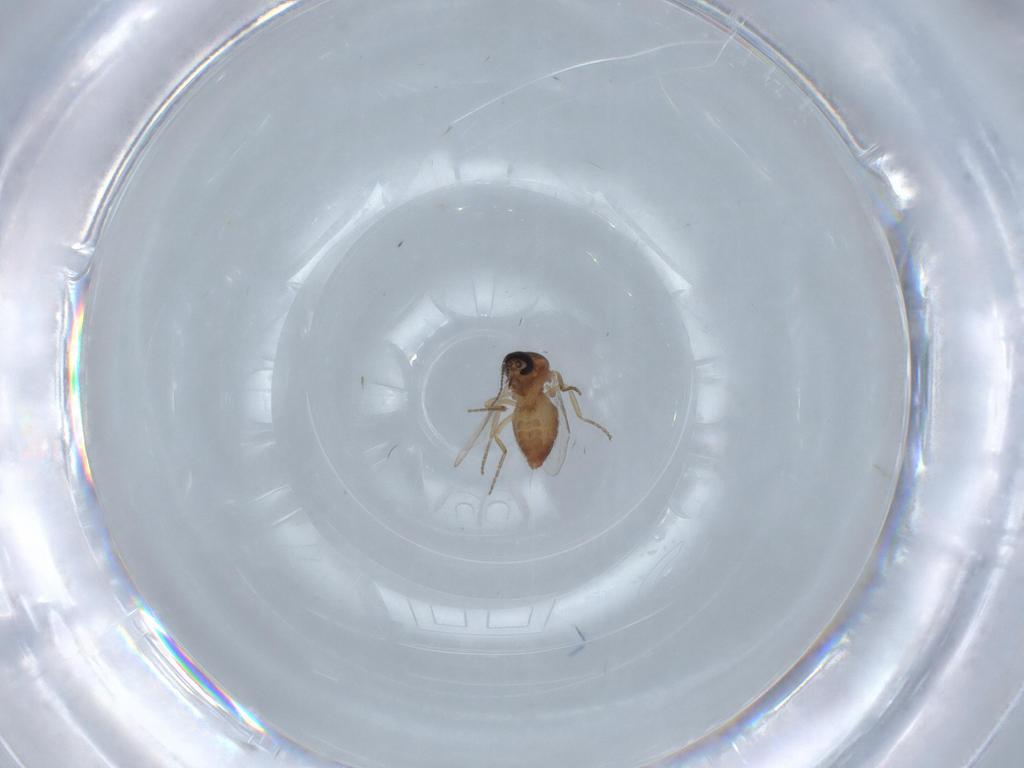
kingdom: Animalia
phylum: Arthropoda
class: Insecta
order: Diptera
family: Ceratopogonidae
